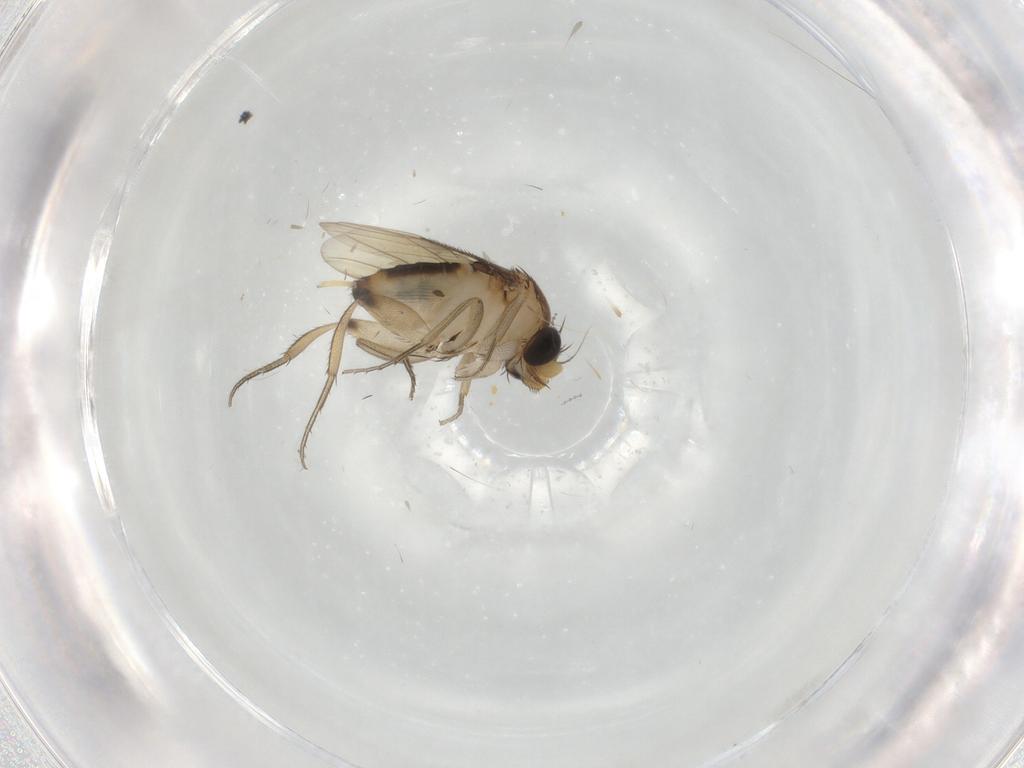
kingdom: Animalia
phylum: Arthropoda
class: Insecta
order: Diptera
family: Phoridae
